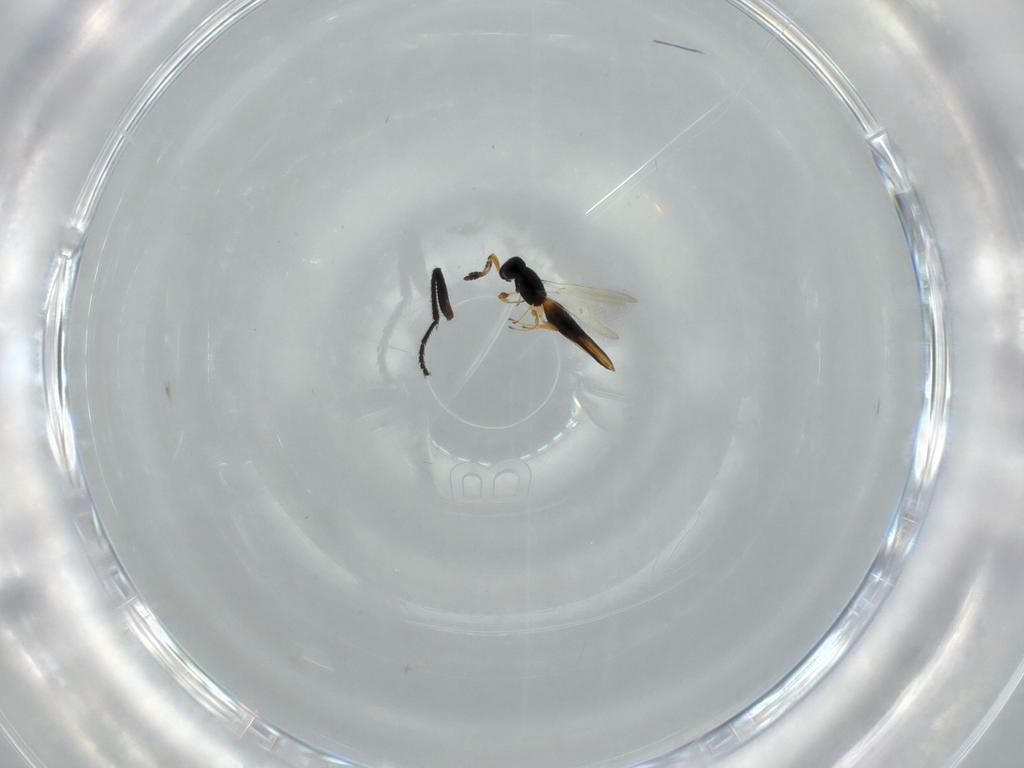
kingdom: Animalia
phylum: Arthropoda
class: Insecta
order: Hymenoptera
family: Scelionidae
